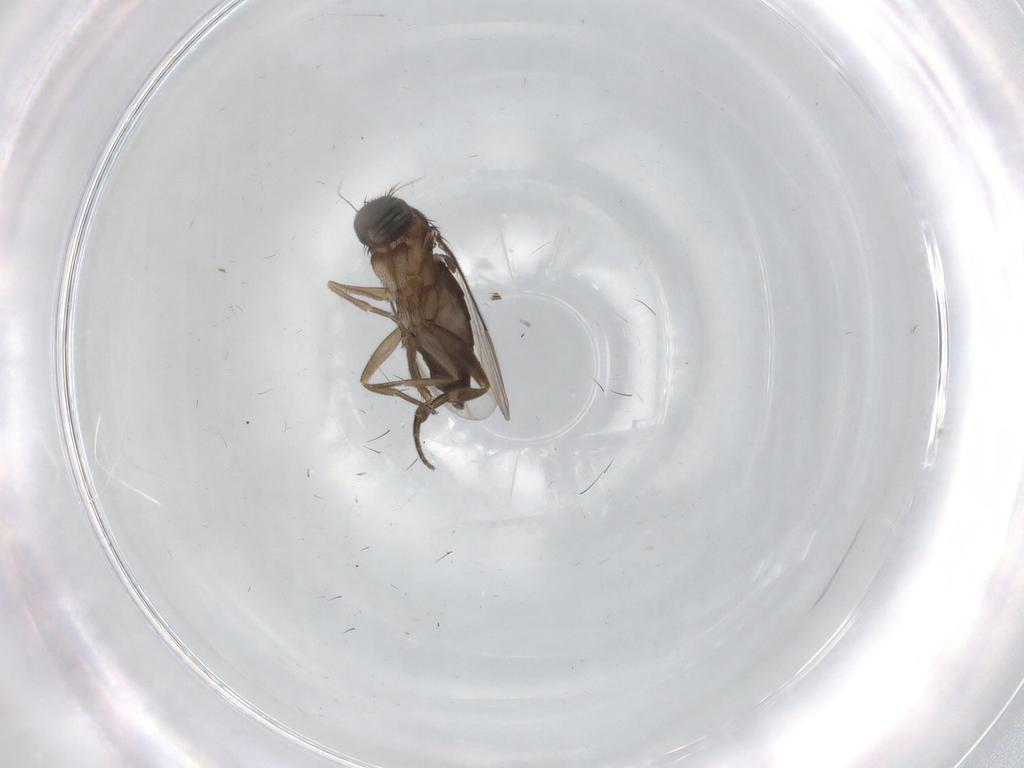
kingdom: Animalia
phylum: Arthropoda
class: Insecta
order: Diptera
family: Phoridae
